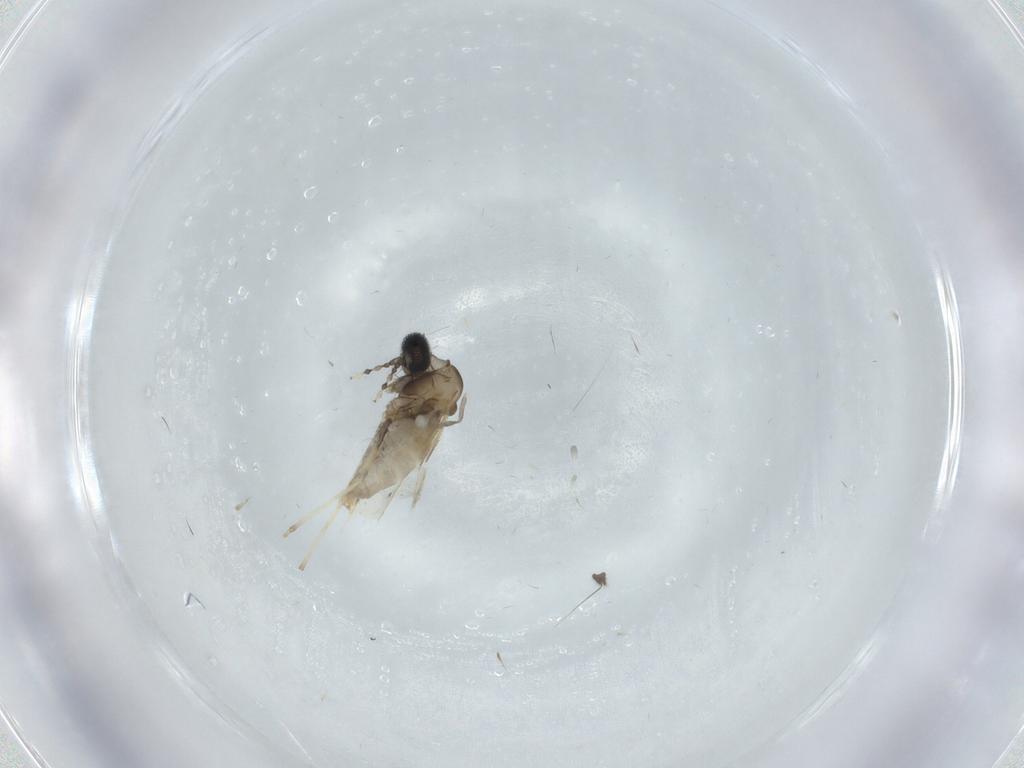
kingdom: Animalia
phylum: Arthropoda
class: Insecta
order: Diptera
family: Cecidomyiidae
